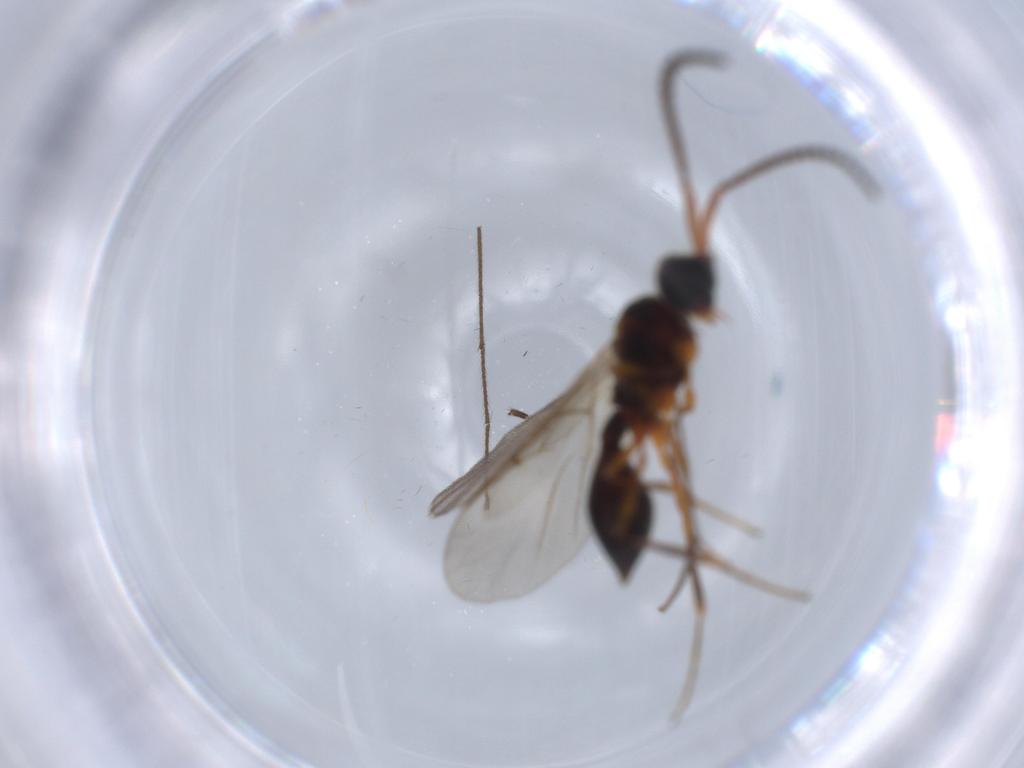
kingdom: Animalia
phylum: Arthropoda
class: Insecta
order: Hymenoptera
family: Diapriidae
